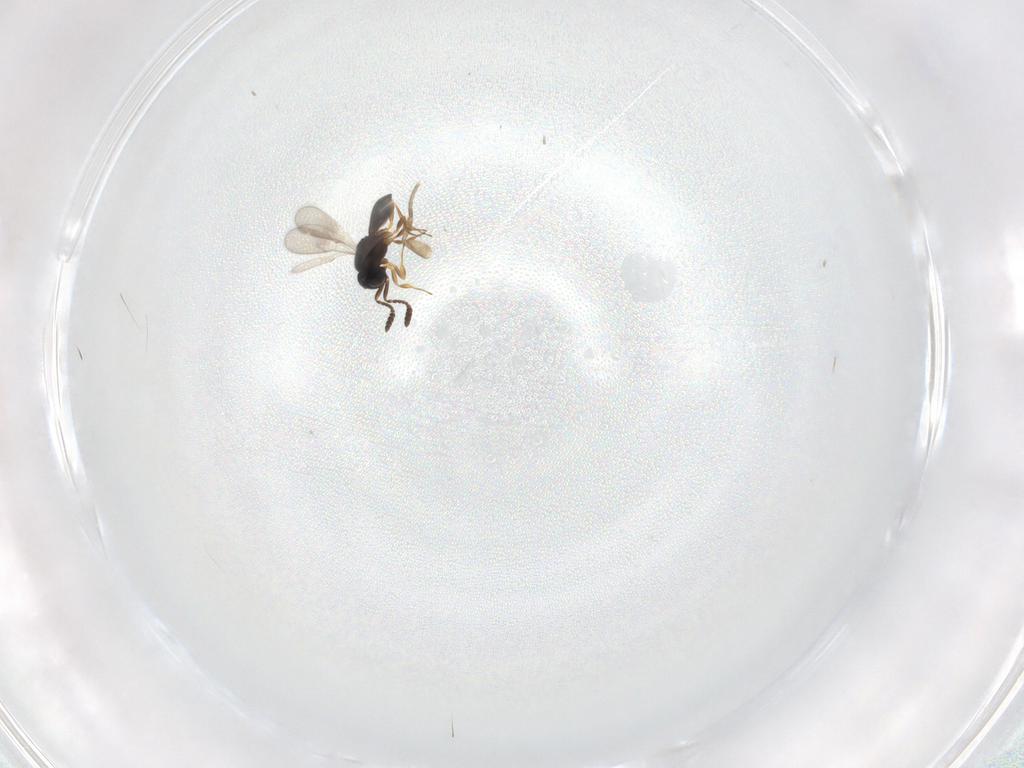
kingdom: Animalia
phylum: Arthropoda
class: Insecta
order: Hymenoptera
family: Scelionidae
